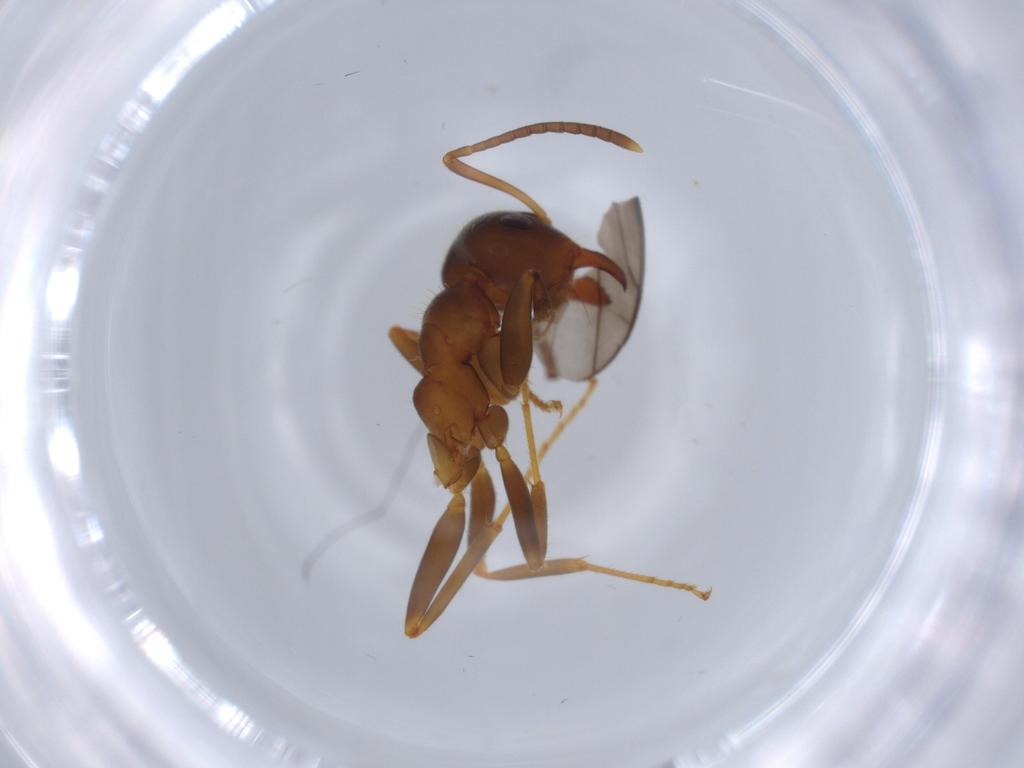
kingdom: Animalia
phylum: Arthropoda
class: Insecta
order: Hymenoptera
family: Formicidae
